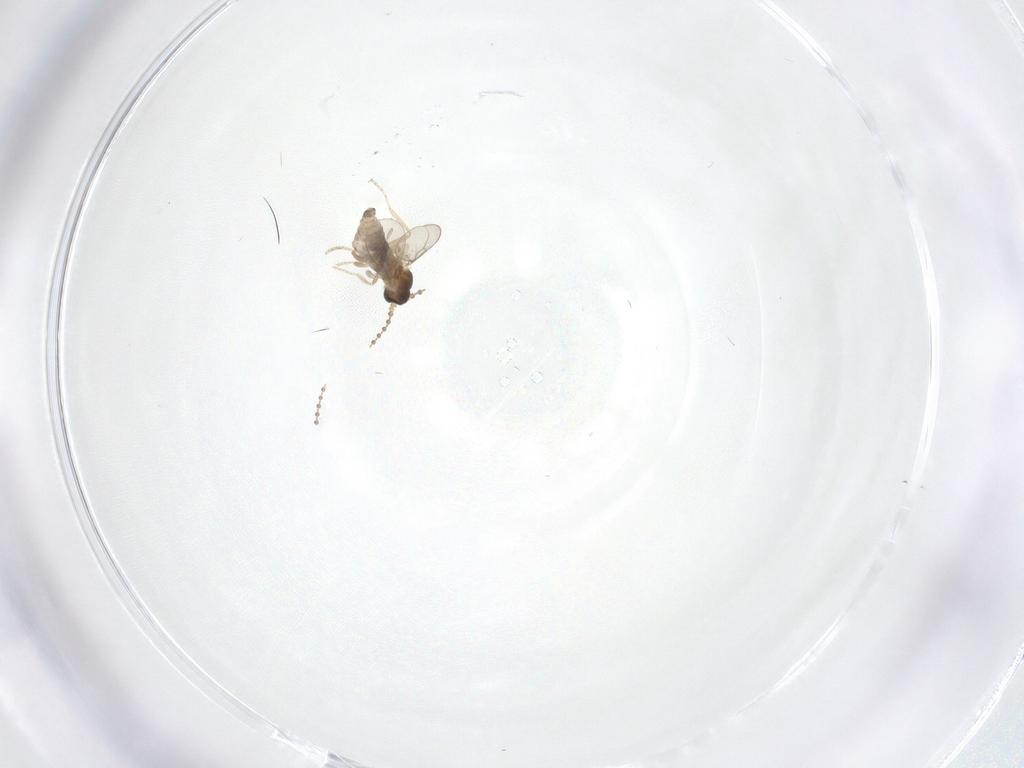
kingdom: Animalia
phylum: Arthropoda
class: Insecta
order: Diptera
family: Cecidomyiidae
